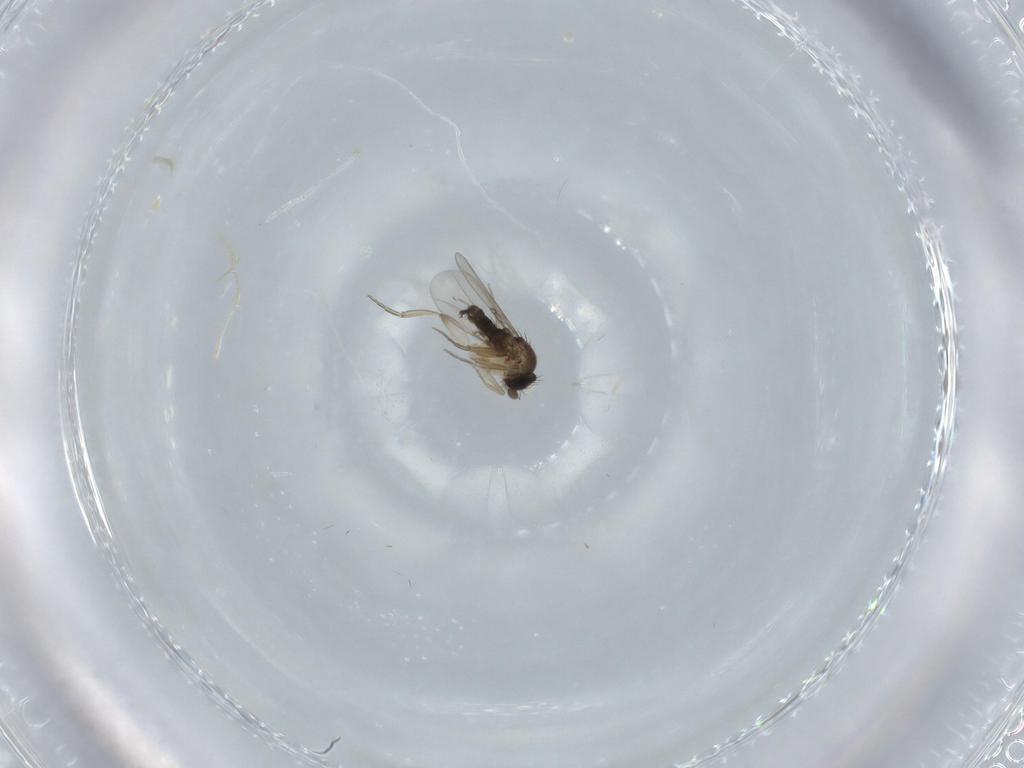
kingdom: Animalia
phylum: Arthropoda
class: Insecta
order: Diptera
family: Phoridae
